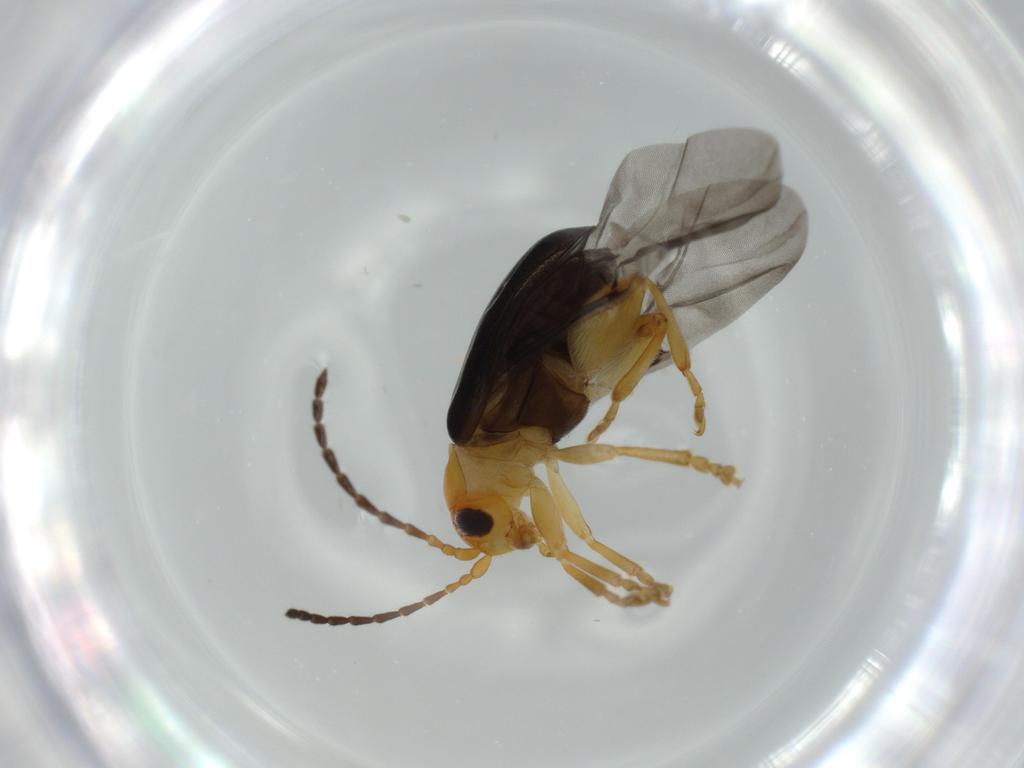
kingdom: Animalia
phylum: Arthropoda
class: Insecta
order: Coleoptera
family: Chrysomelidae
